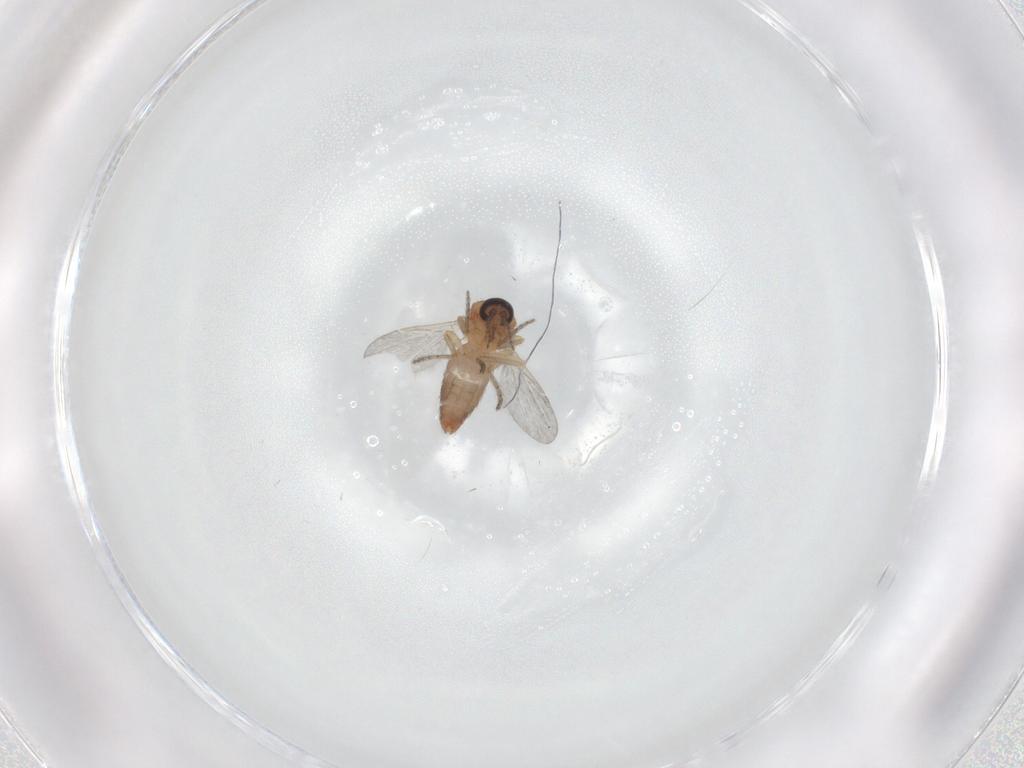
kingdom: Animalia
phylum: Arthropoda
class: Insecta
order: Diptera
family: Ceratopogonidae
